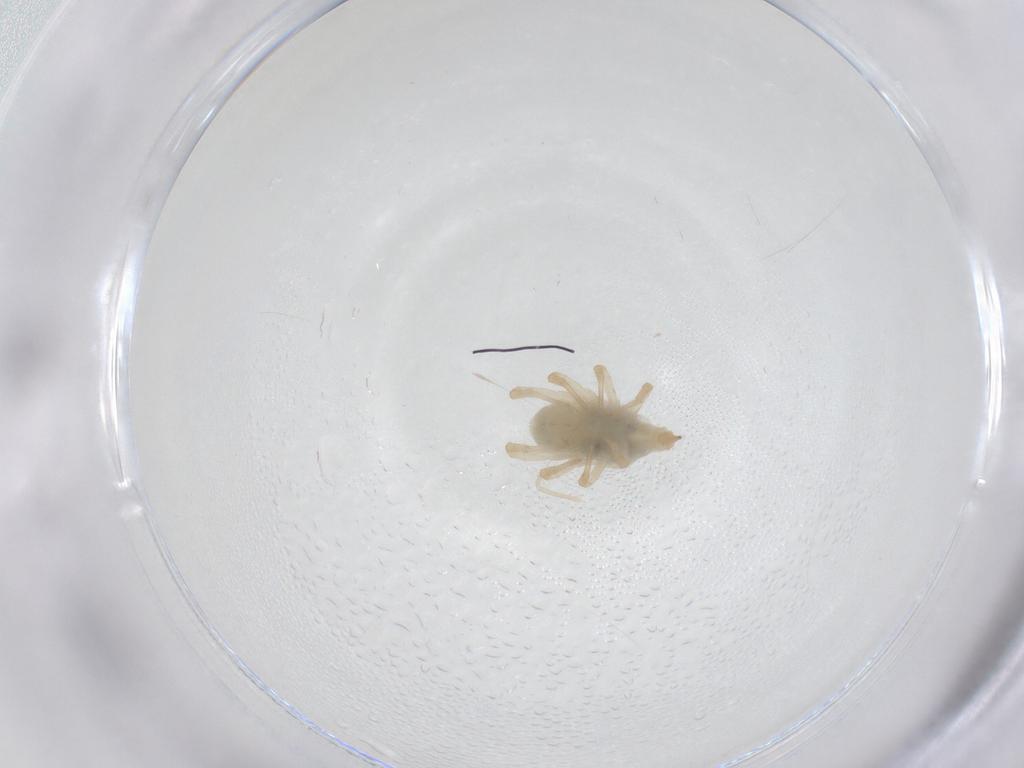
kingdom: Animalia
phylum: Arthropoda
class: Arachnida
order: Trombidiformes
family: Bdellidae
